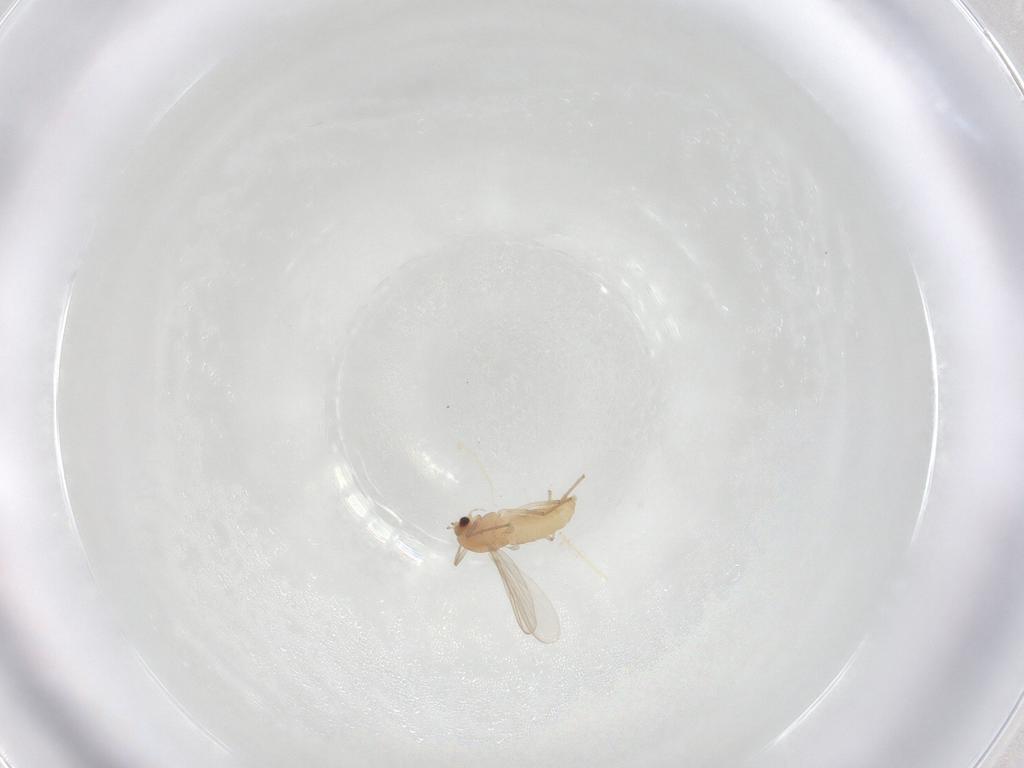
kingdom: Animalia
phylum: Arthropoda
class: Insecta
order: Diptera
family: Chironomidae
